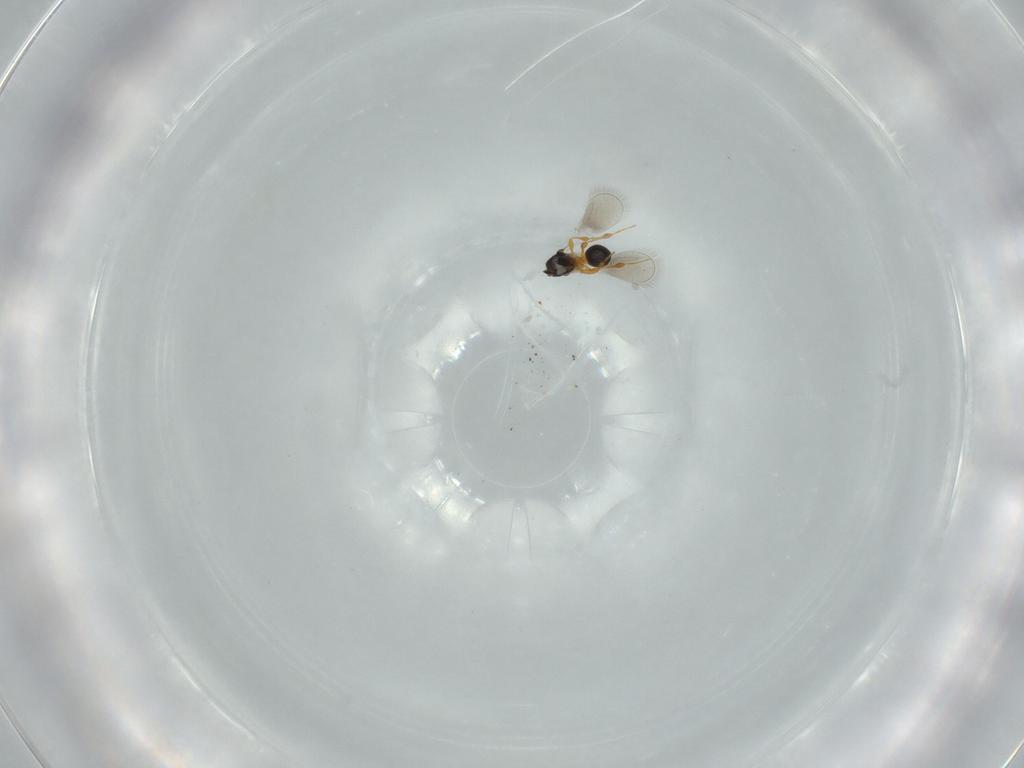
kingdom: Animalia
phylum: Arthropoda
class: Insecta
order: Hymenoptera
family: Platygastridae
